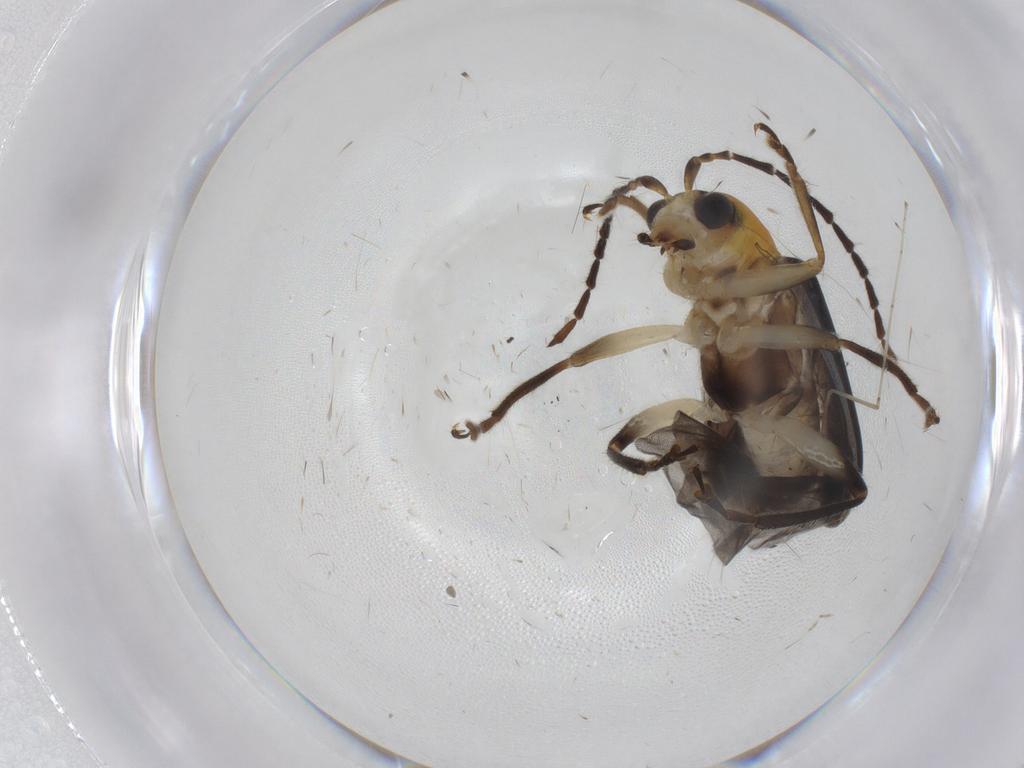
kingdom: Animalia
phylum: Arthropoda
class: Insecta
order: Coleoptera
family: Chrysomelidae
